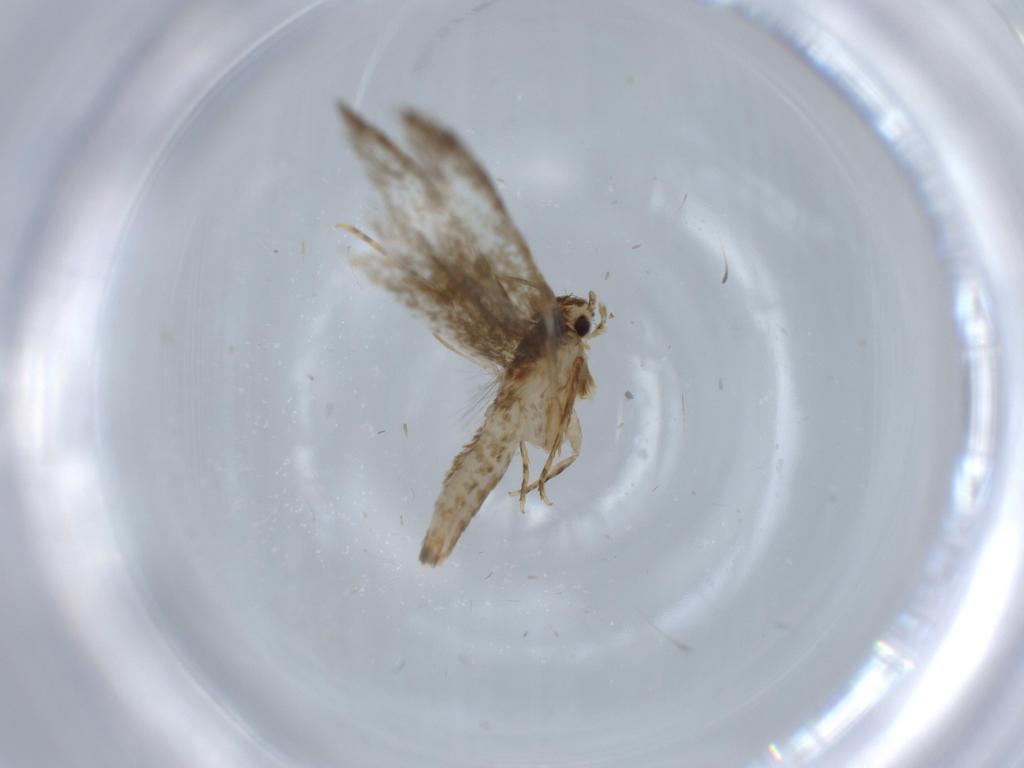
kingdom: Animalia
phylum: Arthropoda
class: Insecta
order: Lepidoptera
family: Tineidae
